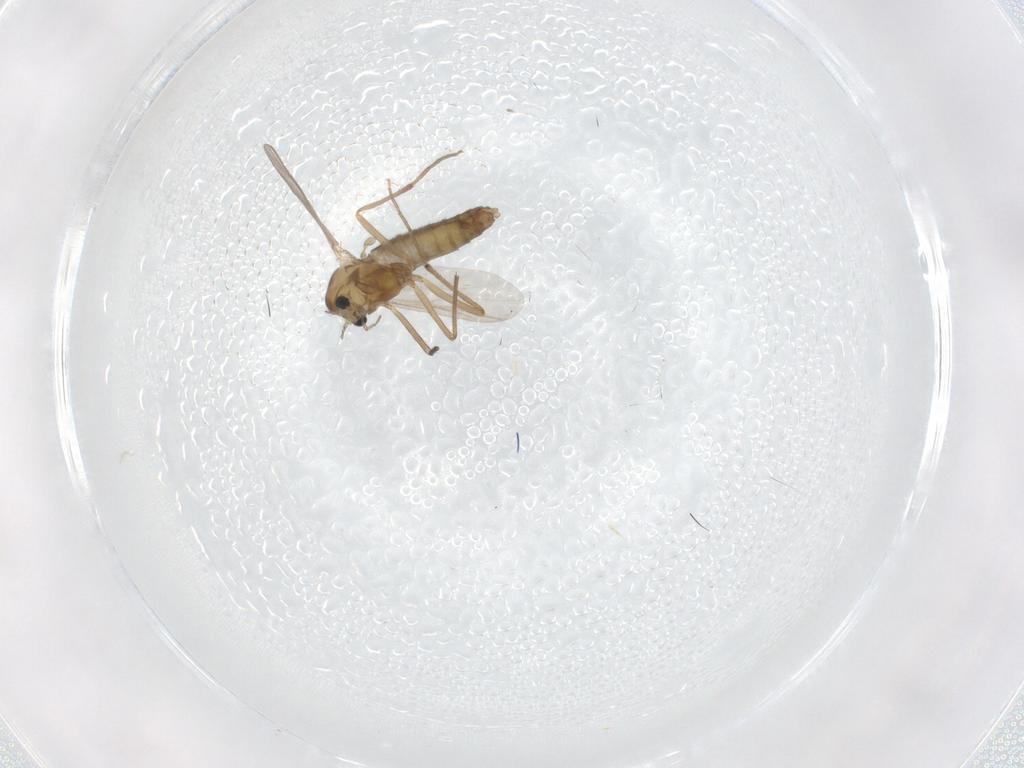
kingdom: Animalia
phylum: Arthropoda
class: Insecta
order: Diptera
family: Chironomidae
